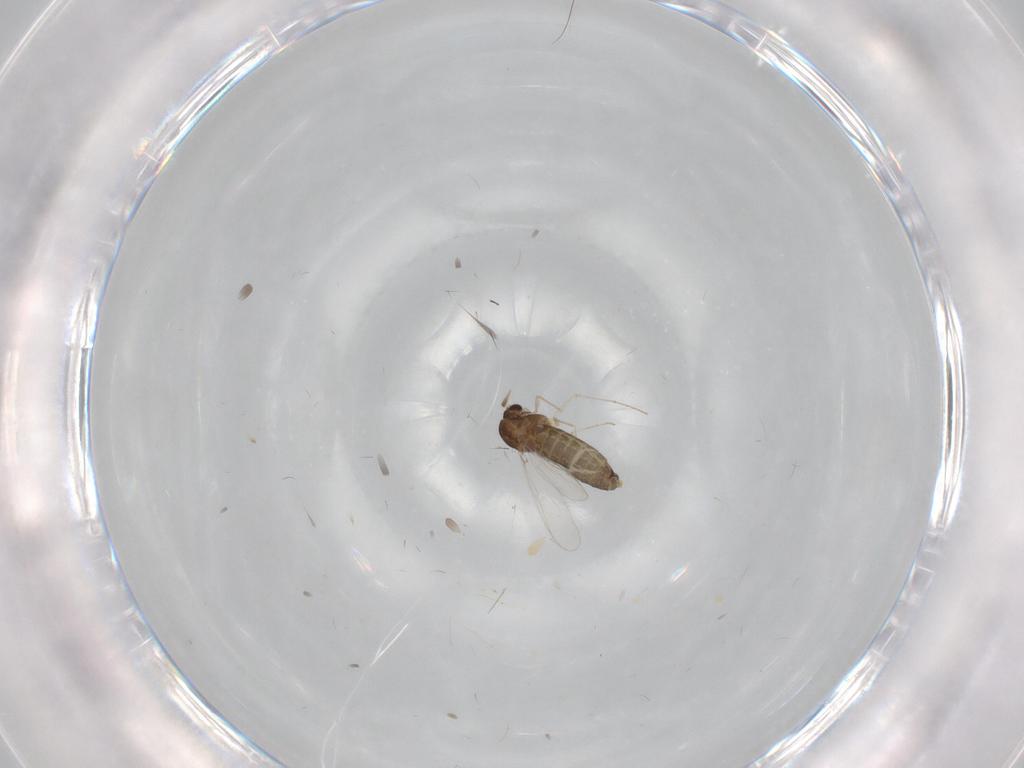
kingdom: Animalia
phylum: Arthropoda
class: Insecta
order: Diptera
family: Chironomidae
